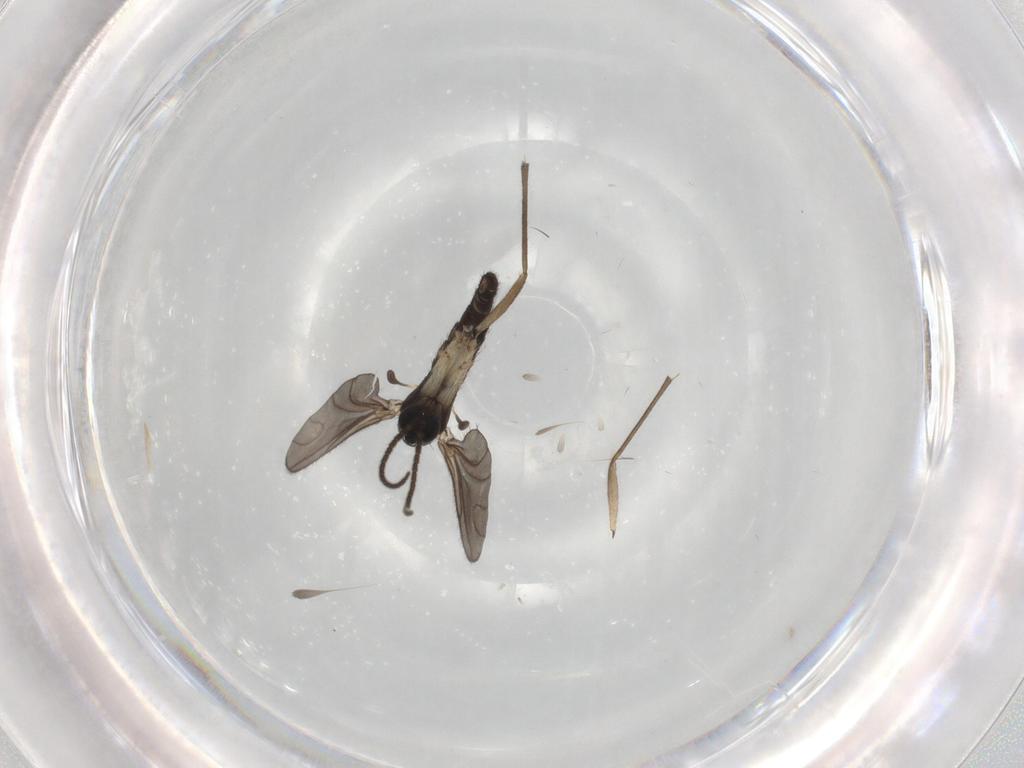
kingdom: Animalia
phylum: Arthropoda
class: Insecta
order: Diptera
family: Sciaridae
